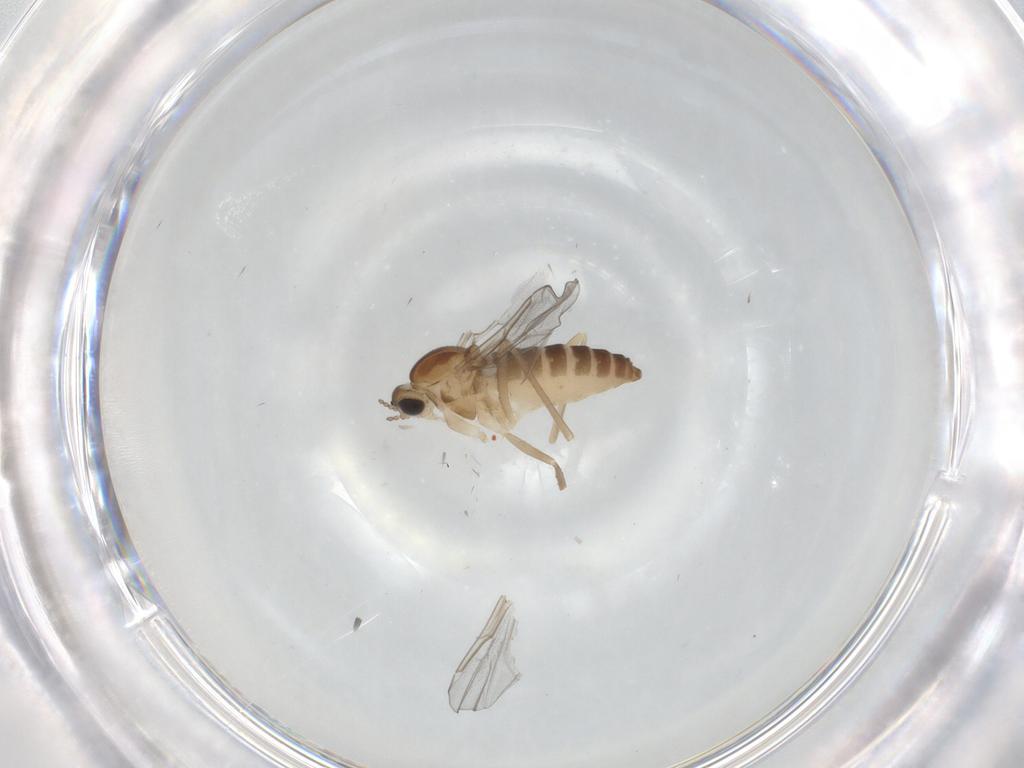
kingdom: Animalia
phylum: Arthropoda
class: Insecta
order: Diptera
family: Cecidomyiidae
